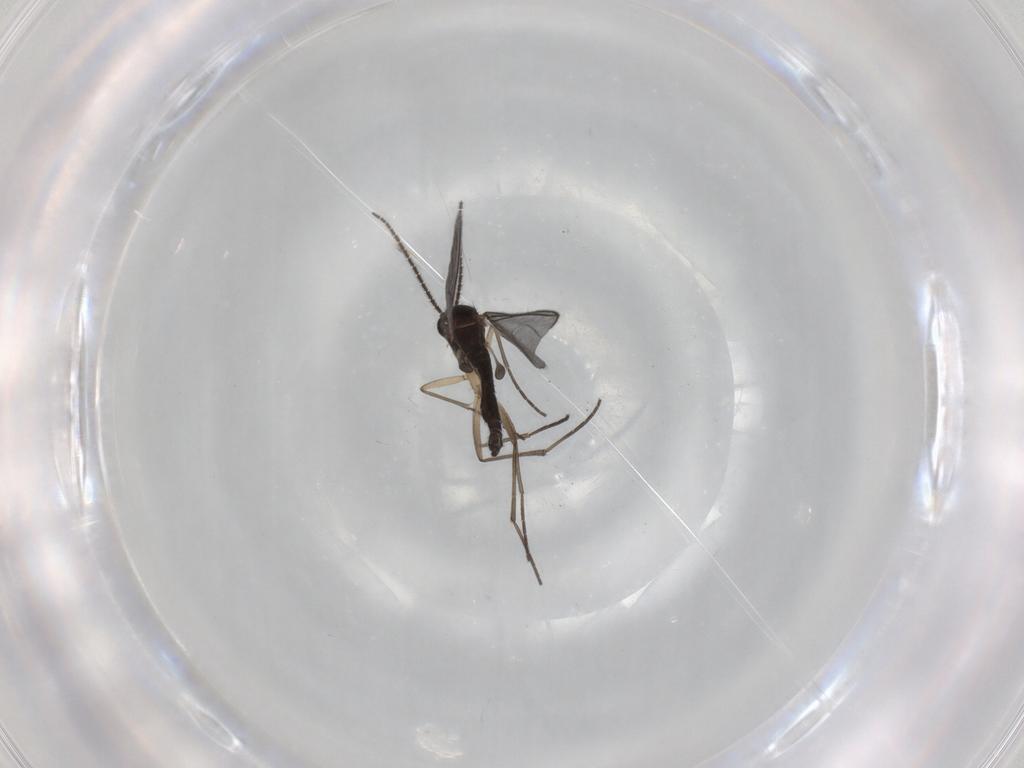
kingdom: Animalia
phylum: Arthropoda
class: Insecta
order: Diptera
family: Sciaridae
